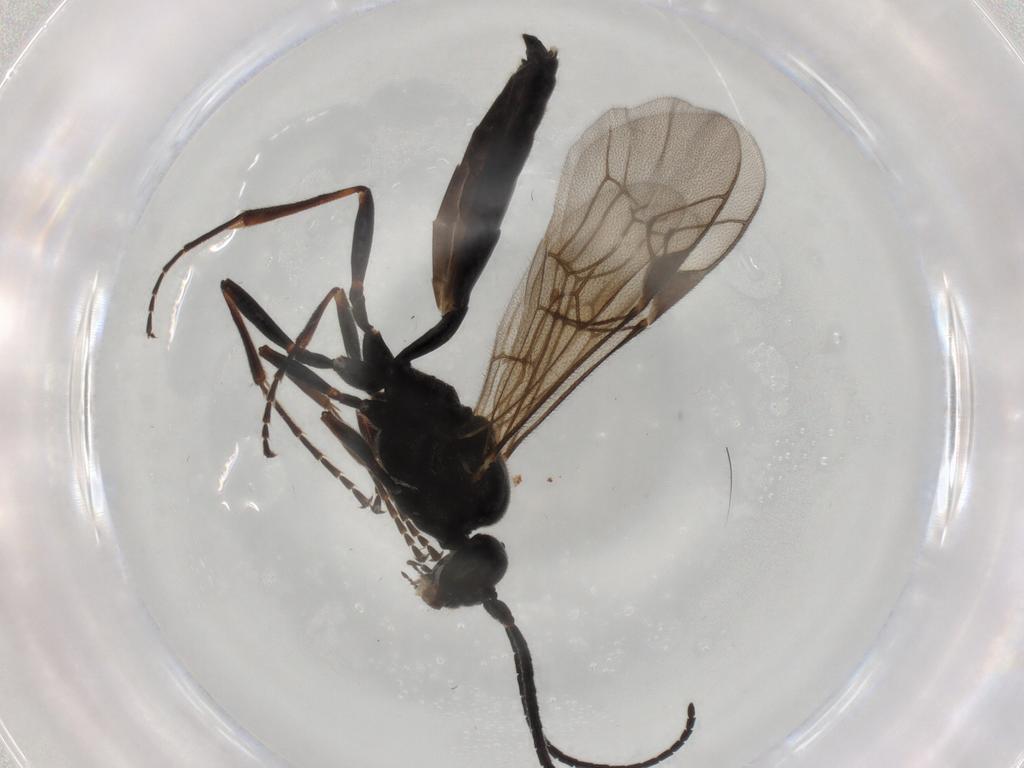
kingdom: Animalia
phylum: Arthropoda
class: Insecta
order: Hymenoptera
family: Ichneumonidae
